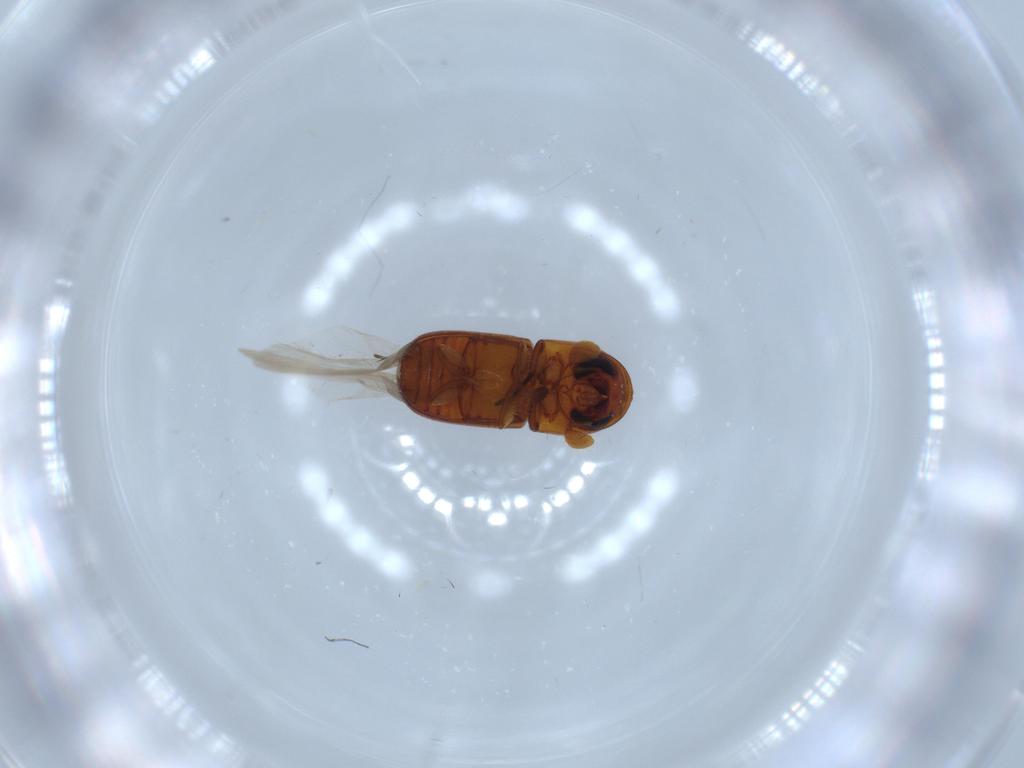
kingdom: Animalia
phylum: Arthropoda
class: Insecta
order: Coleoptera
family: Curculionidae
